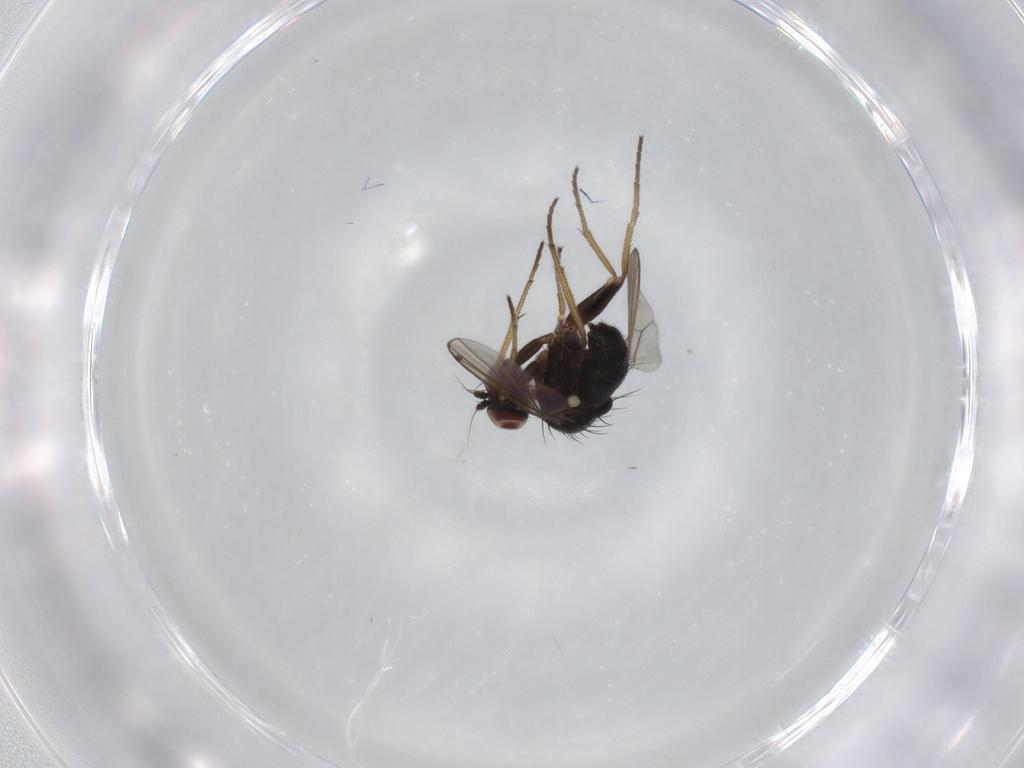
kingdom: Animalia
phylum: Arthropoda
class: Insecta
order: Diptera
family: Dolichopodidae
